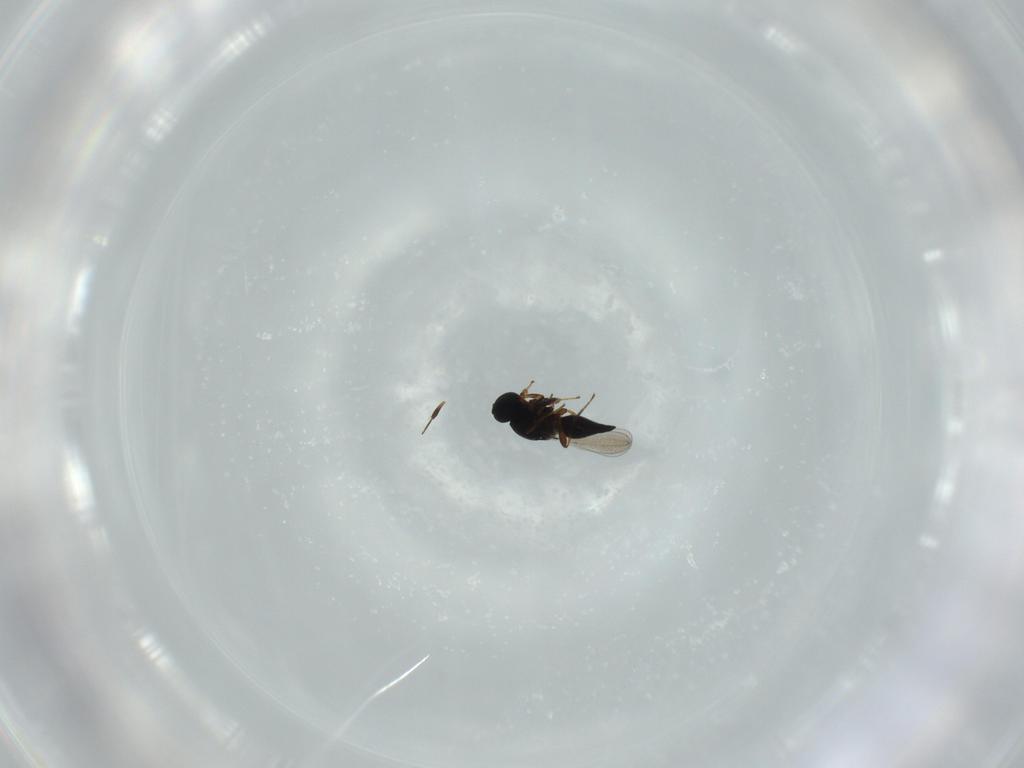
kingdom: Animalia
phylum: Arthropoda
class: Insecta
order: Hymenoptera
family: Platygastridae
